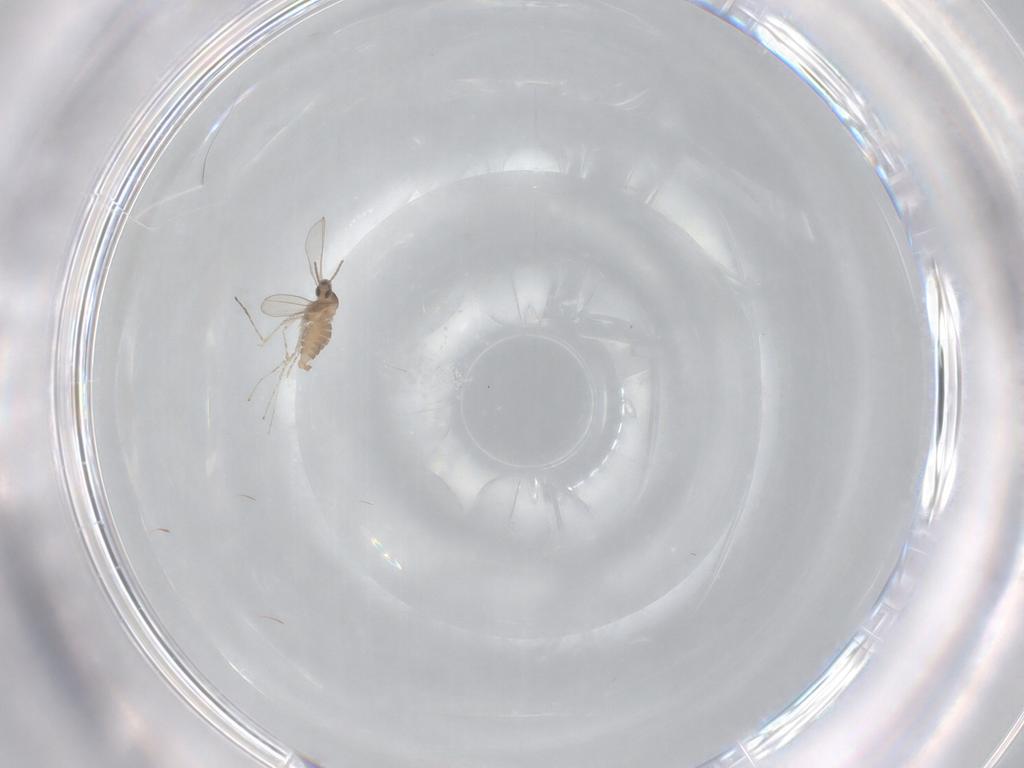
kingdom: Animalia
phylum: Arthropoda
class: Insecta
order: Diptera
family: Cecidomyiidae
